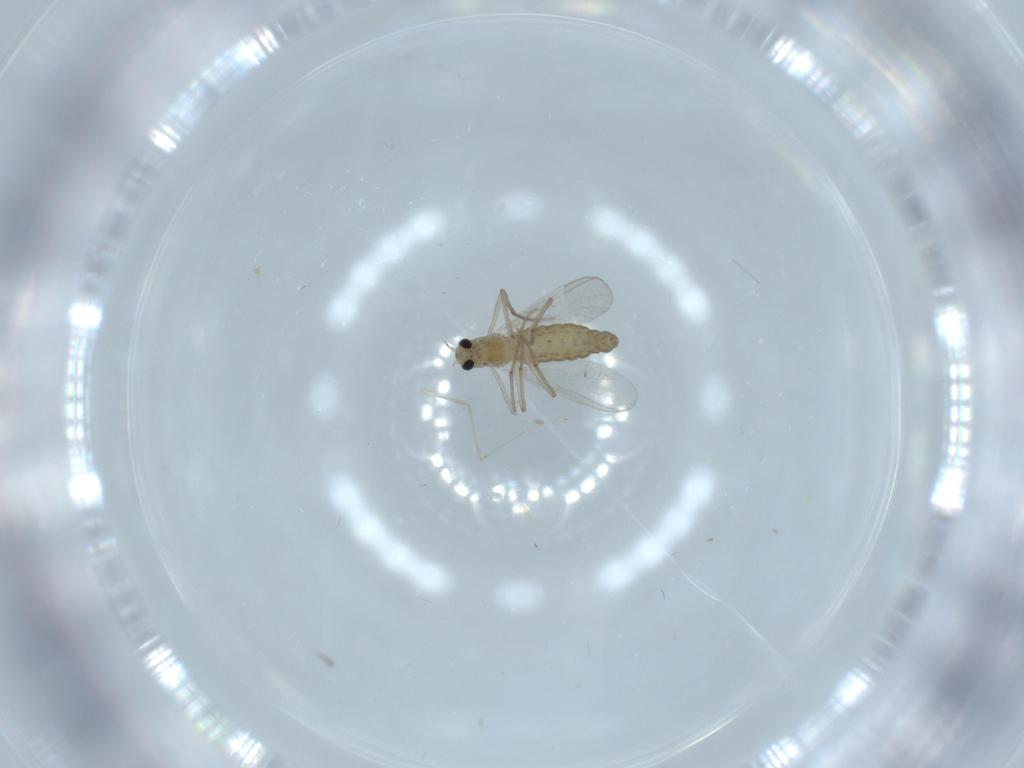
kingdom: Animalia
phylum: Arthropoda
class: Insecta
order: Diptera
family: Chironomidae
